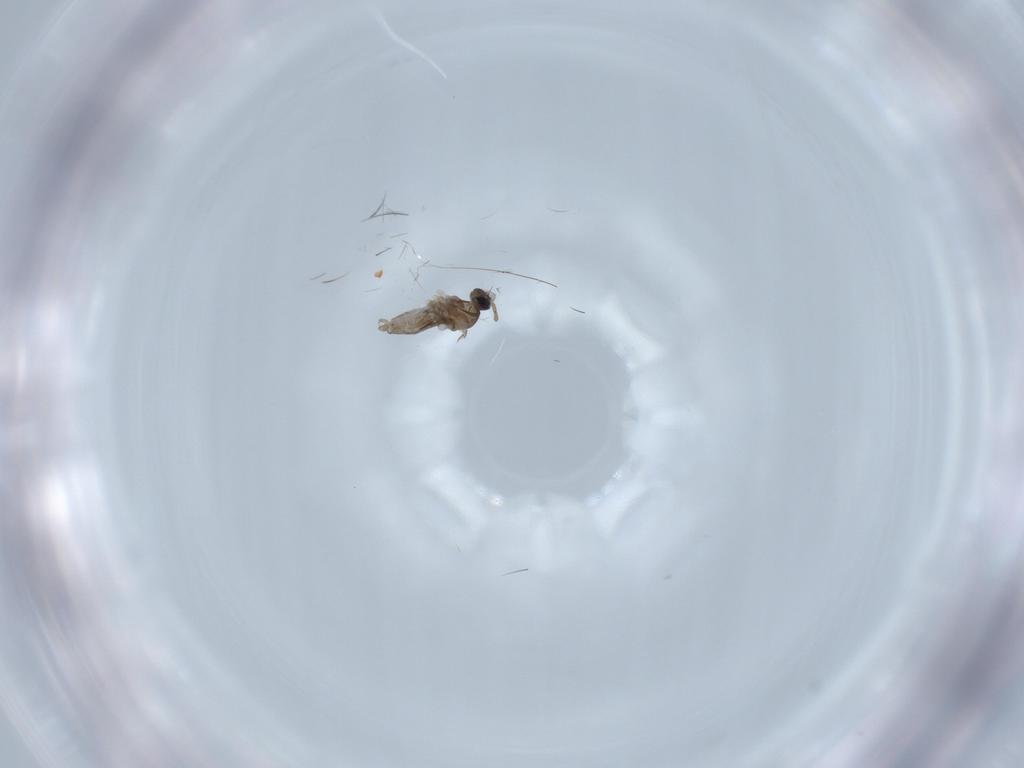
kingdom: Animalia
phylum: Arthropoda
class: Insecta
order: Diptera
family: Cecidomyiidae
